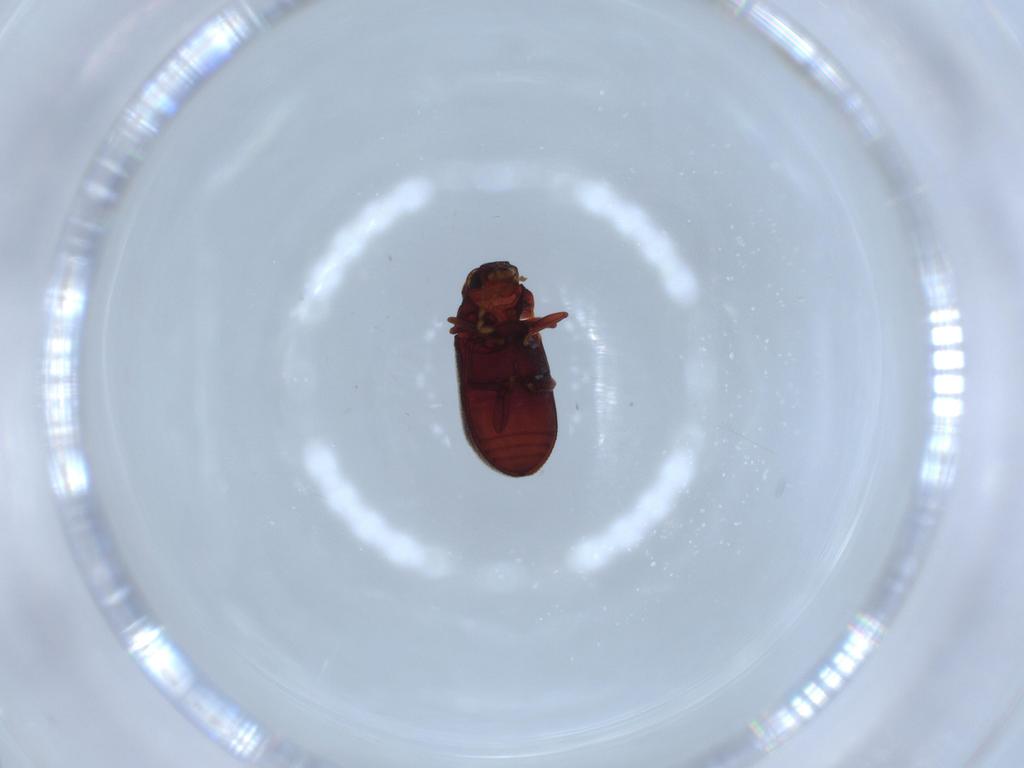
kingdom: Animalia
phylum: Arthropoda
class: Insecta
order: Coleoptera
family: Anobiidae
